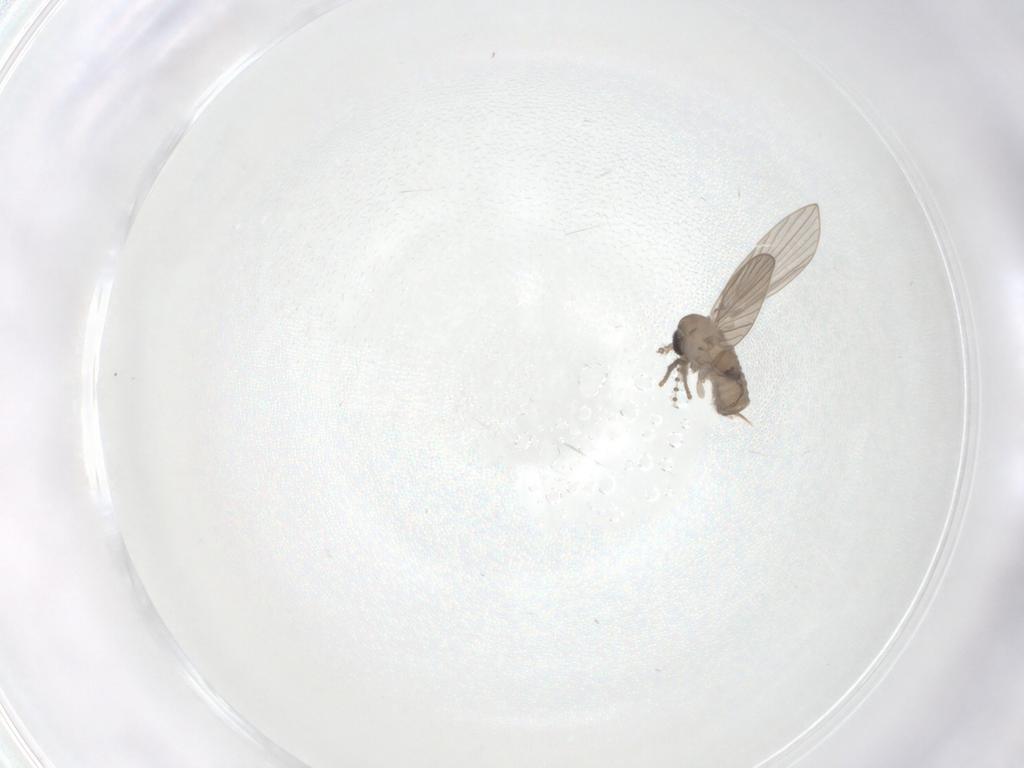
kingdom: Animalia
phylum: Arthropoda
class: Insecta
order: Diptera
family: Psychodidae
